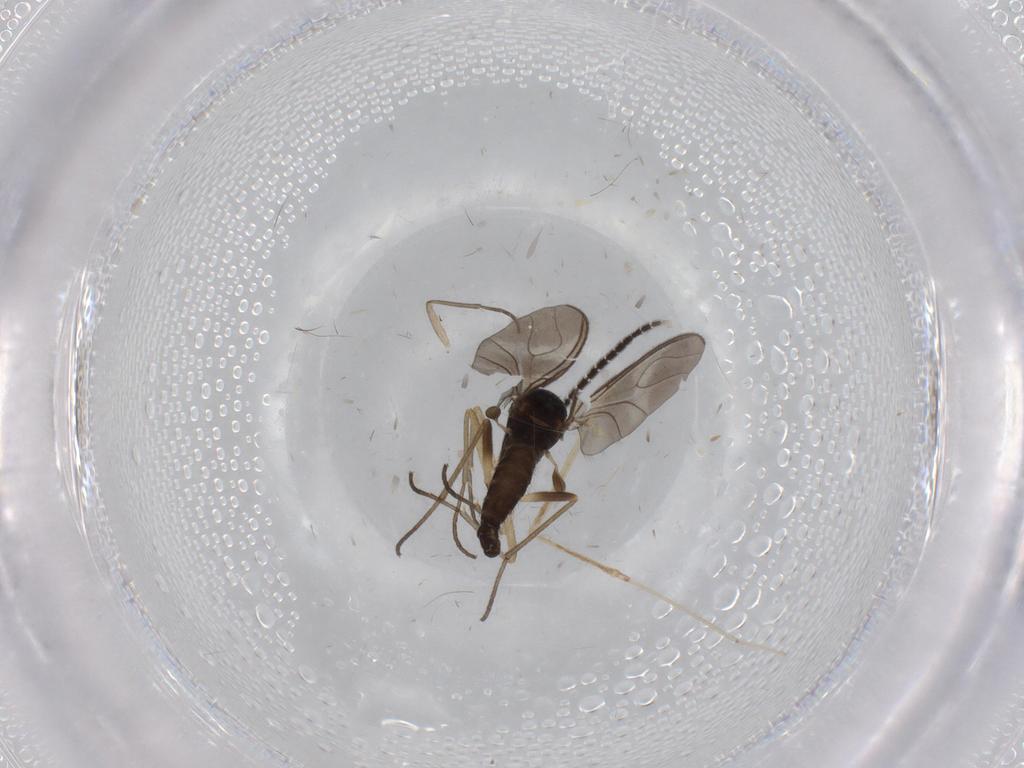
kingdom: Animalia
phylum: Arthropoda
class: Insecta
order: Diptera
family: Sciaridae
